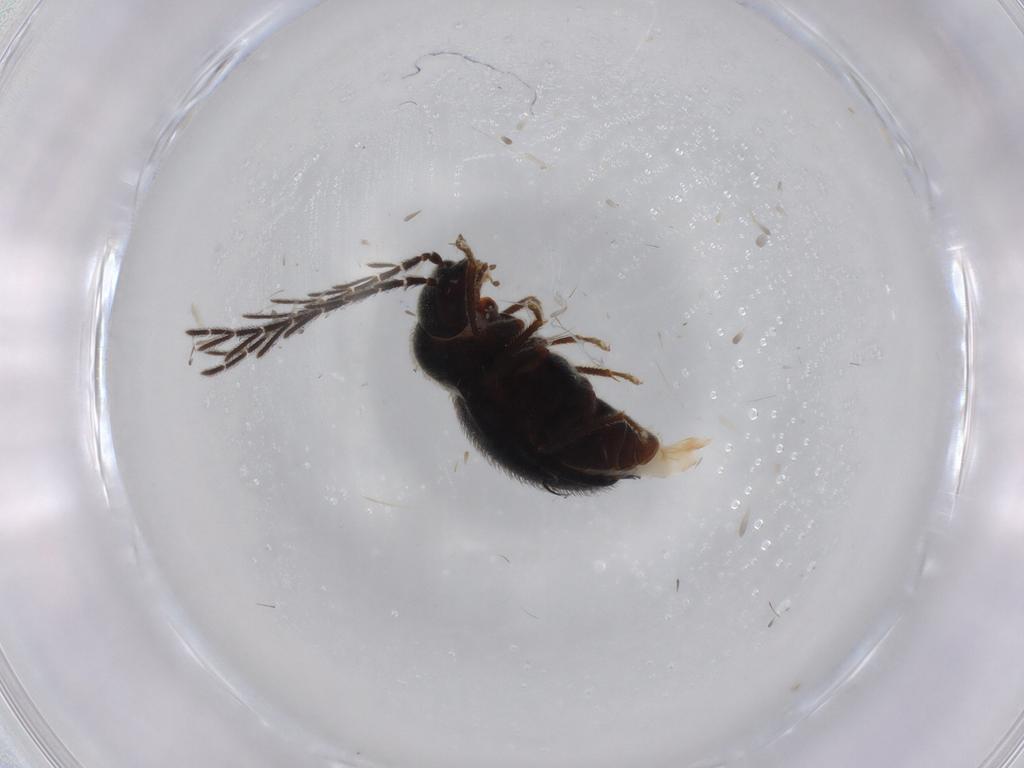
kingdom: Animalia
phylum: Arthropoda
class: Insecta
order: Coleoptera
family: Ptilodactylidae
